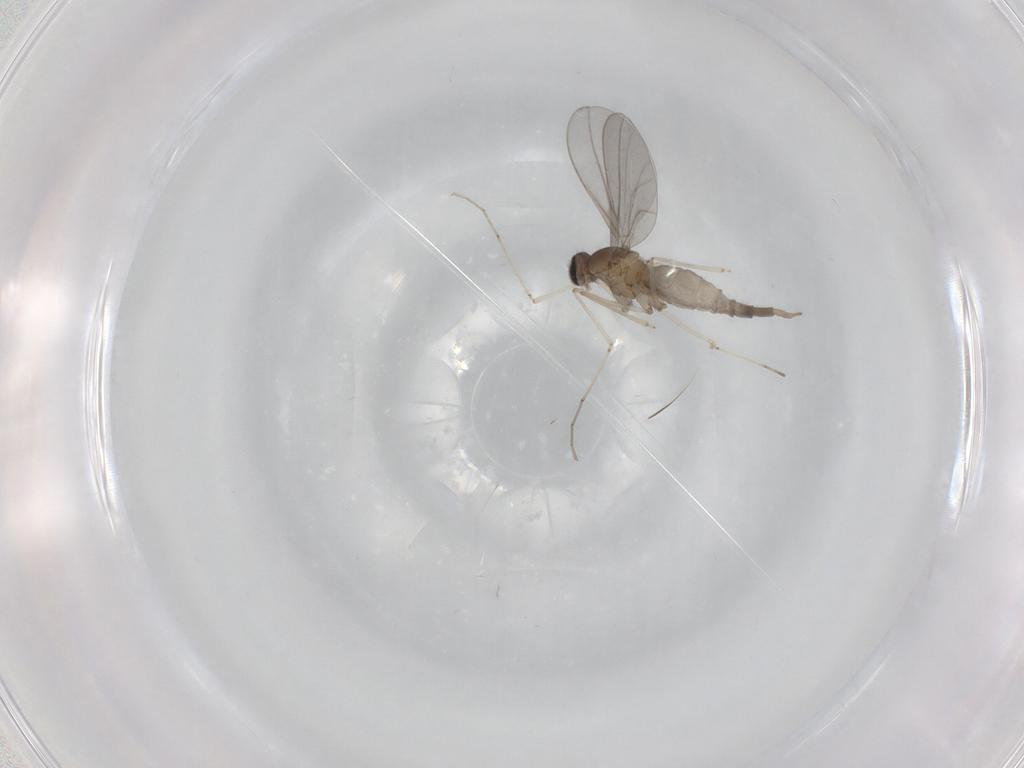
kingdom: Animalia
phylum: Arthropoda
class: Insecta
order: Diptera
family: Cecidomyiidae
